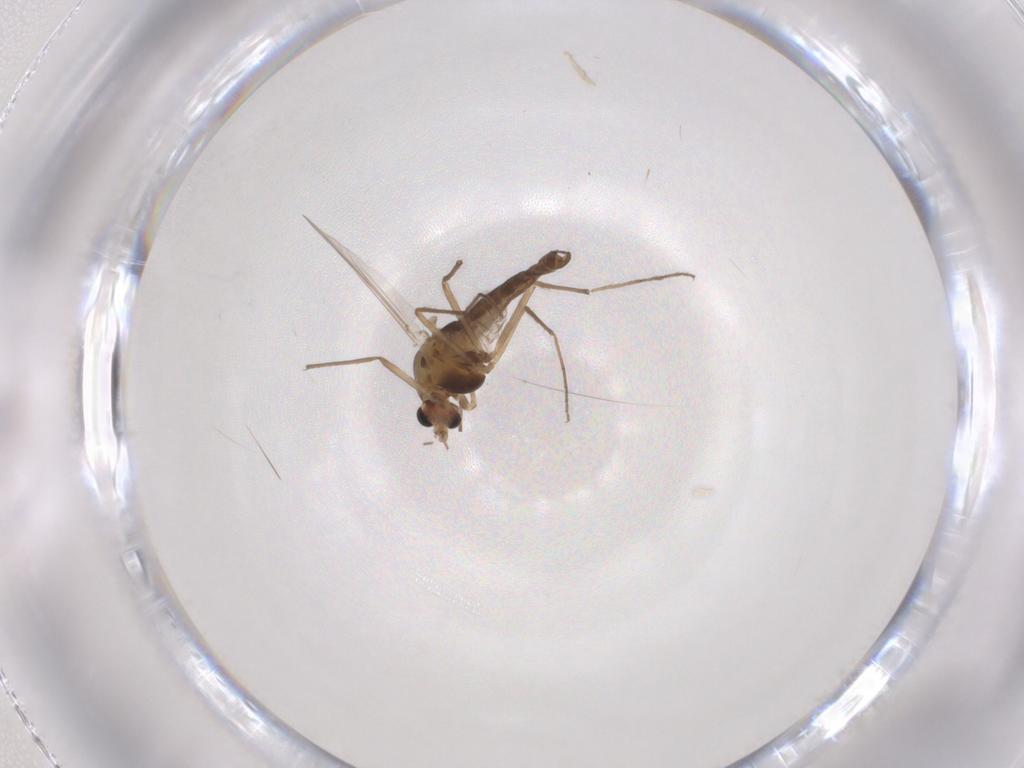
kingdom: Animalia
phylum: Arthropoda
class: Insecta
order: Diptera
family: Chironomidae
